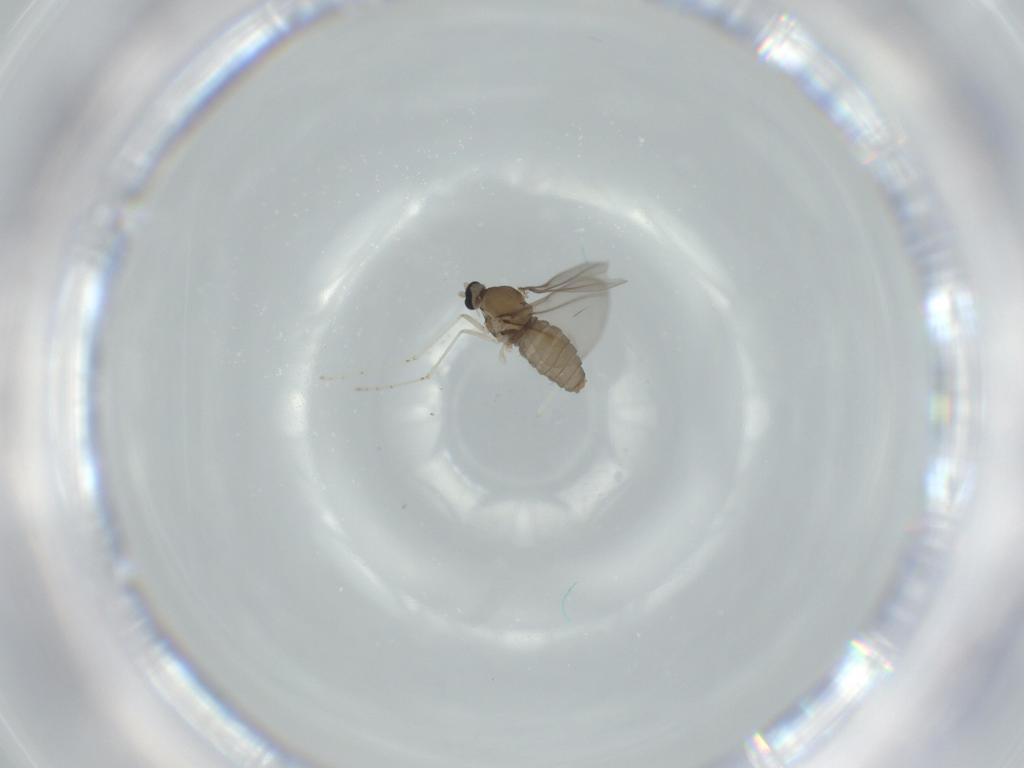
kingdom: Animalia
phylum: Arthropoda
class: Insecta
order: Diptera
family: Cecidomyiidae
